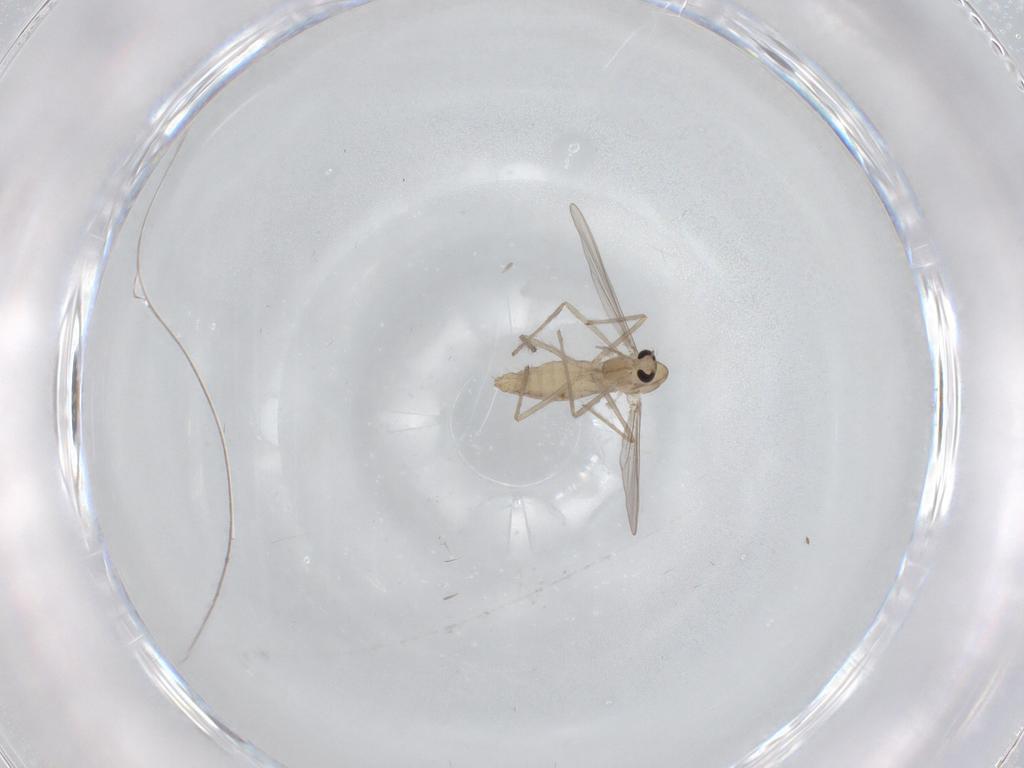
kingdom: Animalia
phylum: Arthropoda
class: Insecta
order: Diptera
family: Chironomidae
